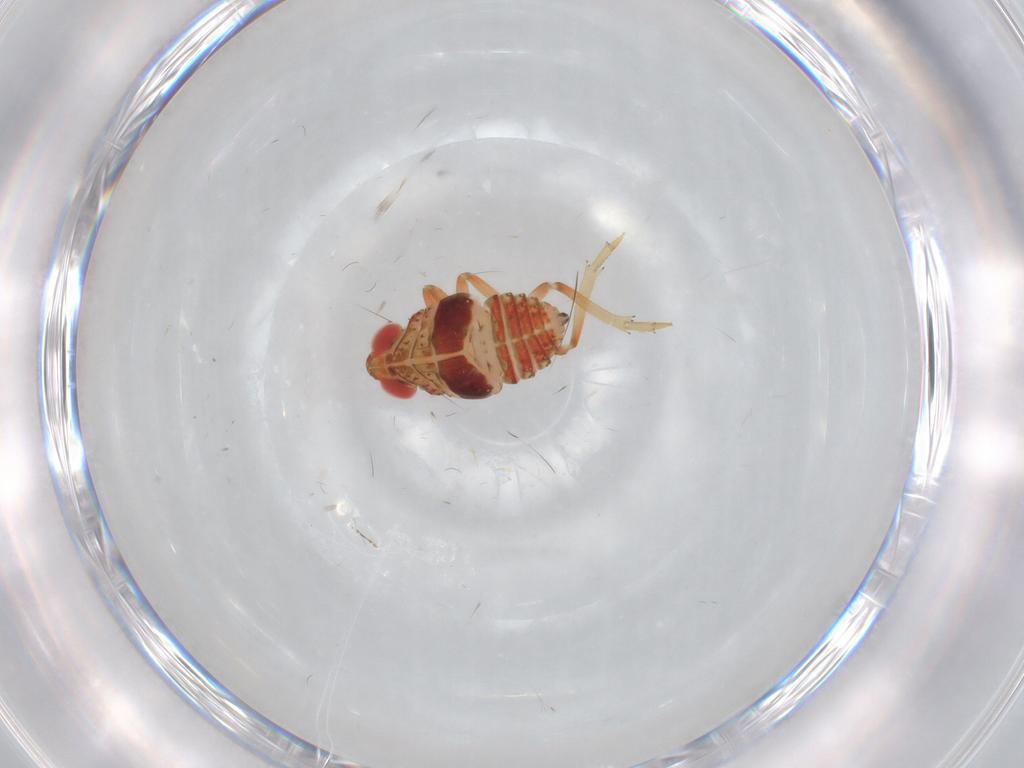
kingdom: Animalia
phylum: Arthropoda
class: Insecta
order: Hemiptera
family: Issidae
